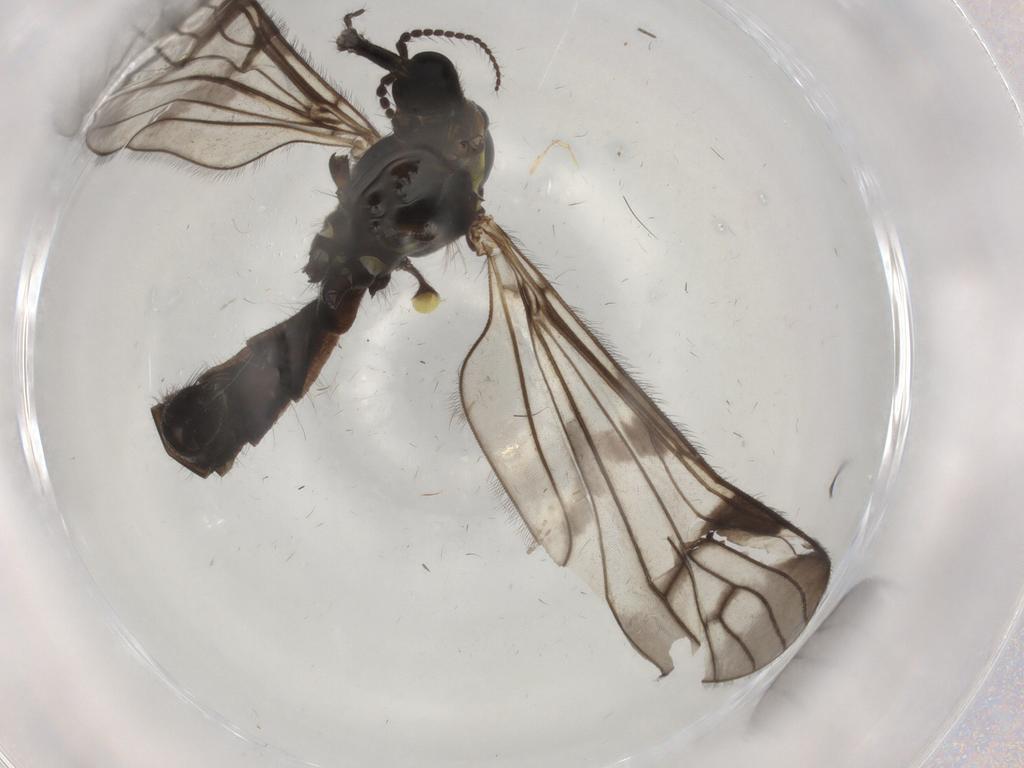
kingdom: Animalia
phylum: Arthropoda
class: Insecta
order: Diptera
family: Limoniidae
